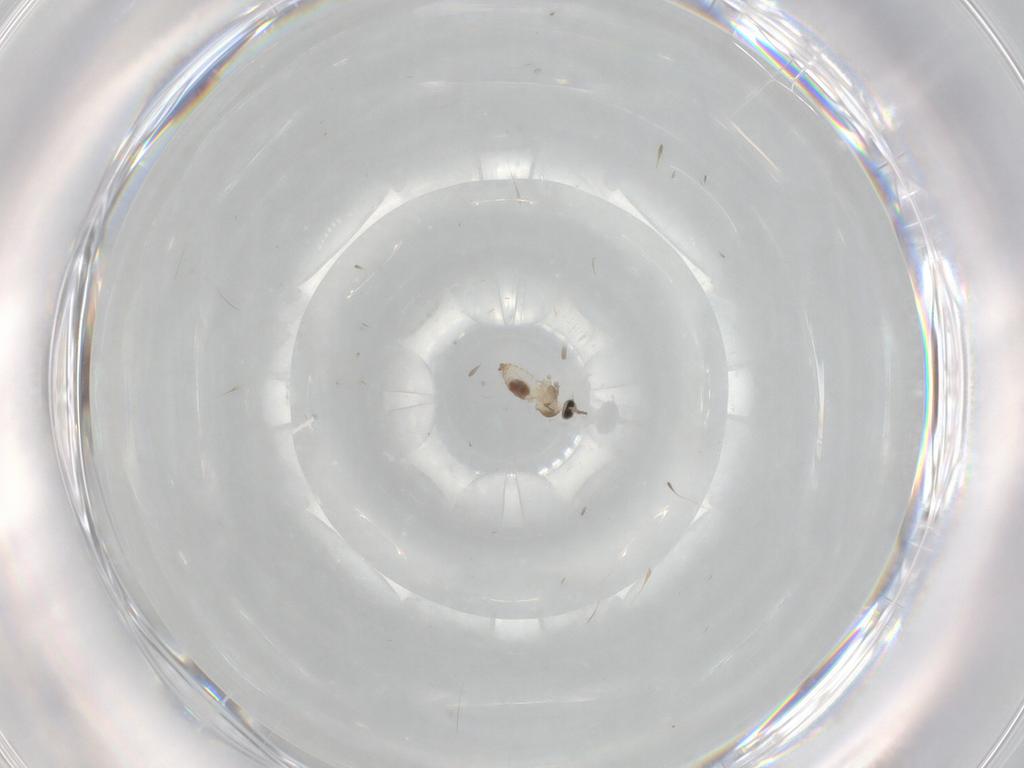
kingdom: Animalia
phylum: Arthropoda
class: Insecta
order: Diptera
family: Cecidomyiidae
